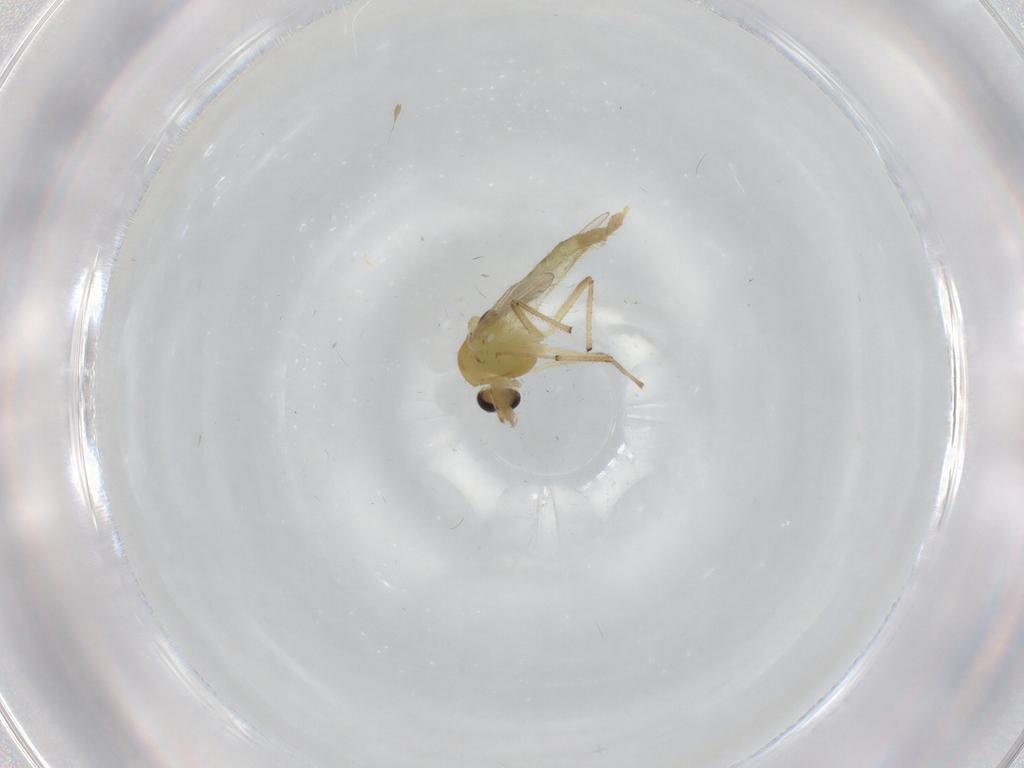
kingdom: Animalia
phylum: Arthropoda
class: Insecta
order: Diptera
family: Chironomidae
